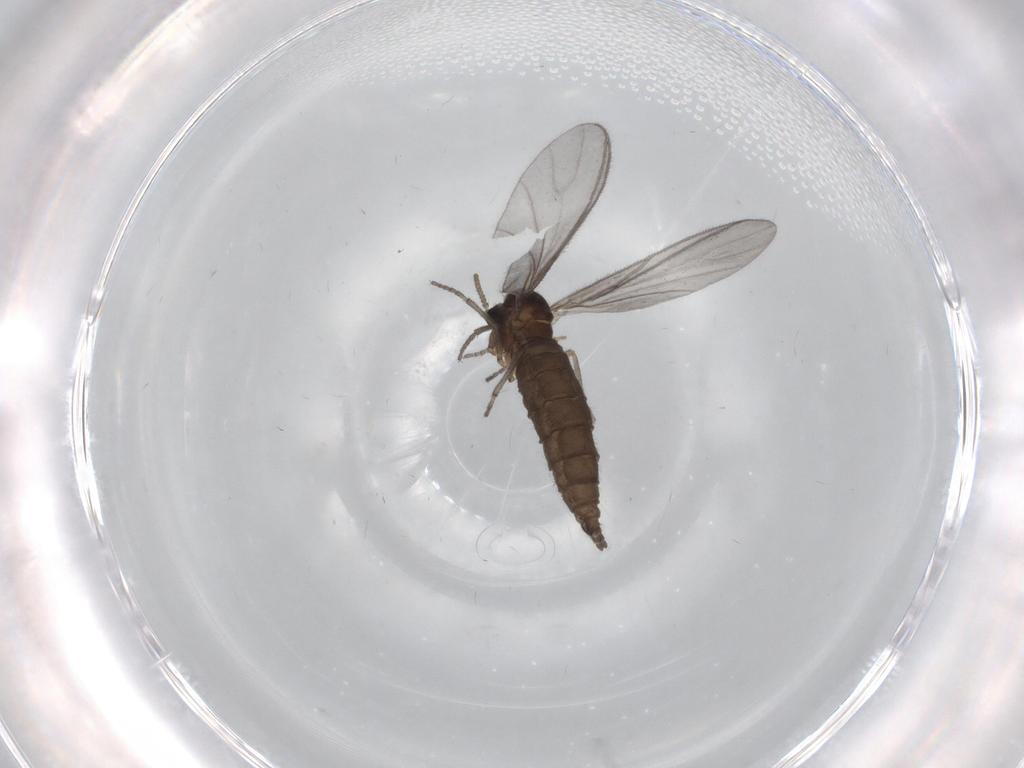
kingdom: Animalia
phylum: Arthropoda
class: Insecta
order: Diptera
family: Sciaridae
